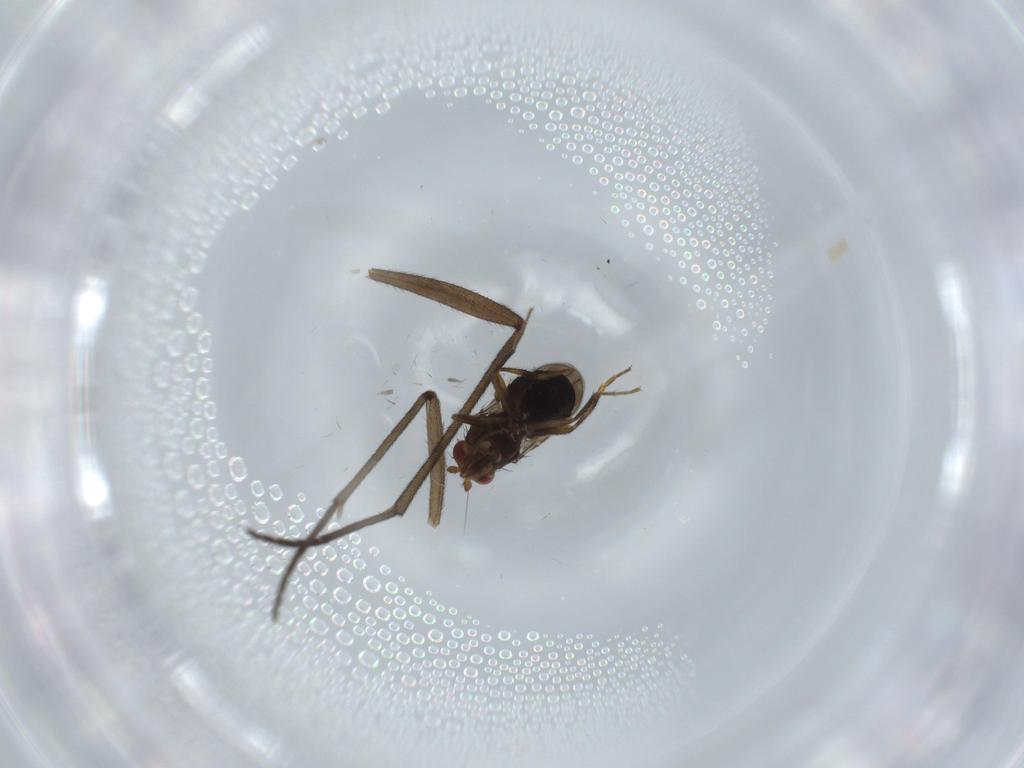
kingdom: Animalia
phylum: Arthropoda
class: Insecta
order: Diptera
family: Sciaridae
